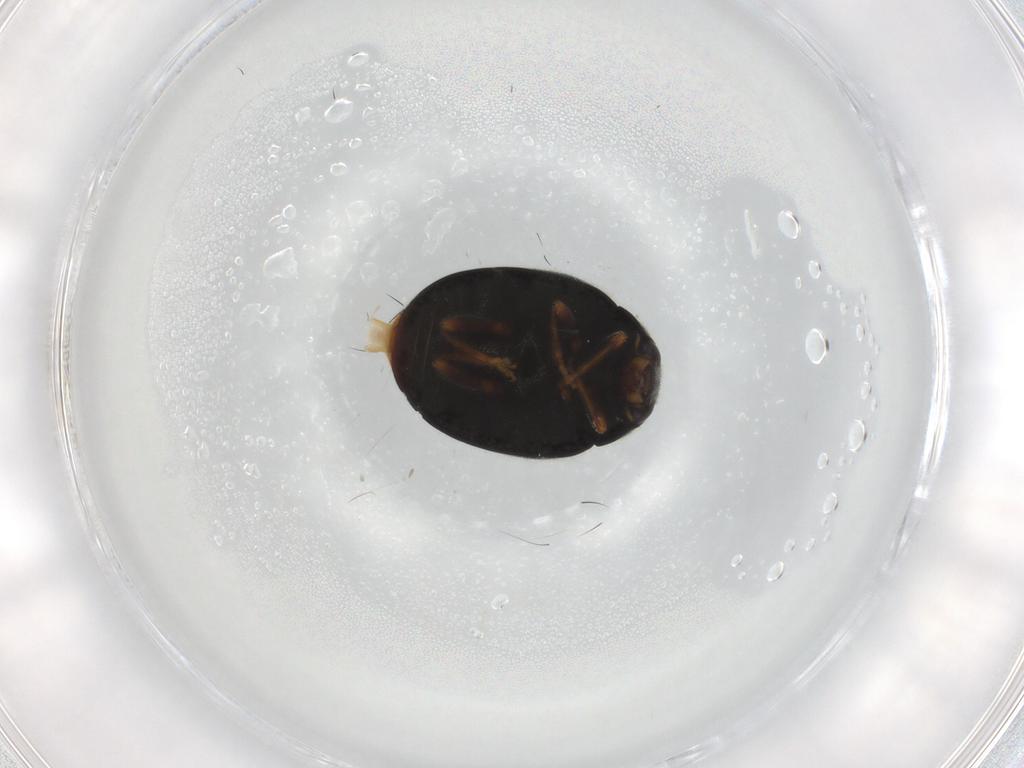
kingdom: Animalia
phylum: Arthropoda
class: Insecta
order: Coleoptera
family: Coccinellidae
